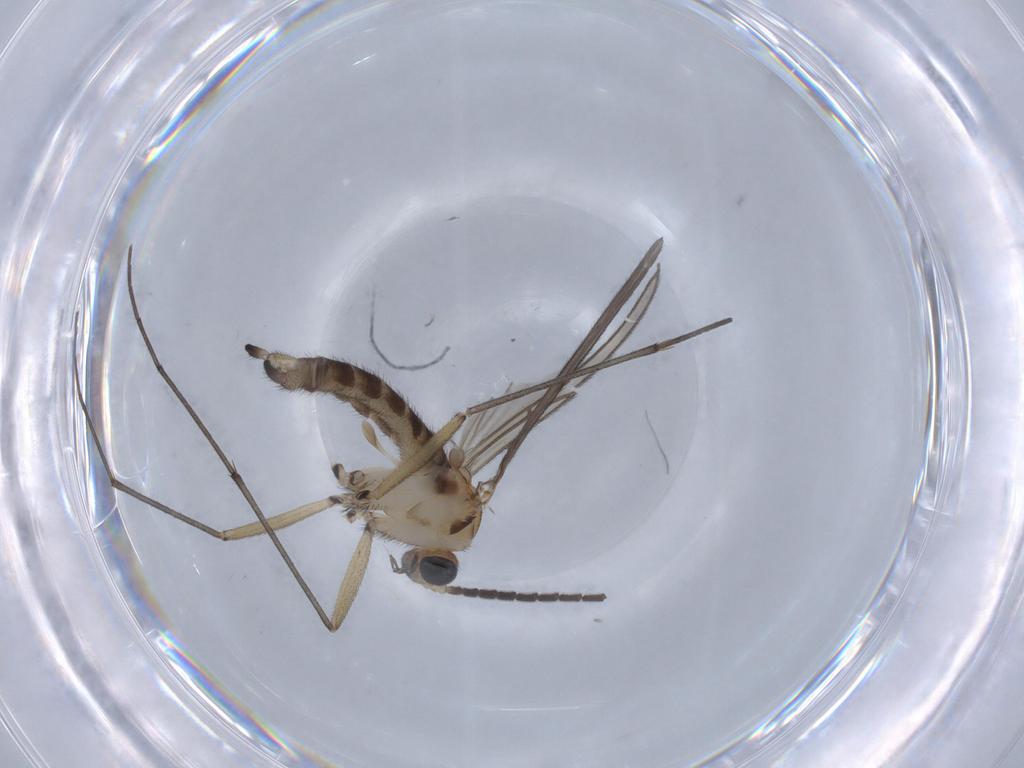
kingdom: Animalia
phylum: Arthropoda
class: Insecta
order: Diptera
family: Sciaridae
